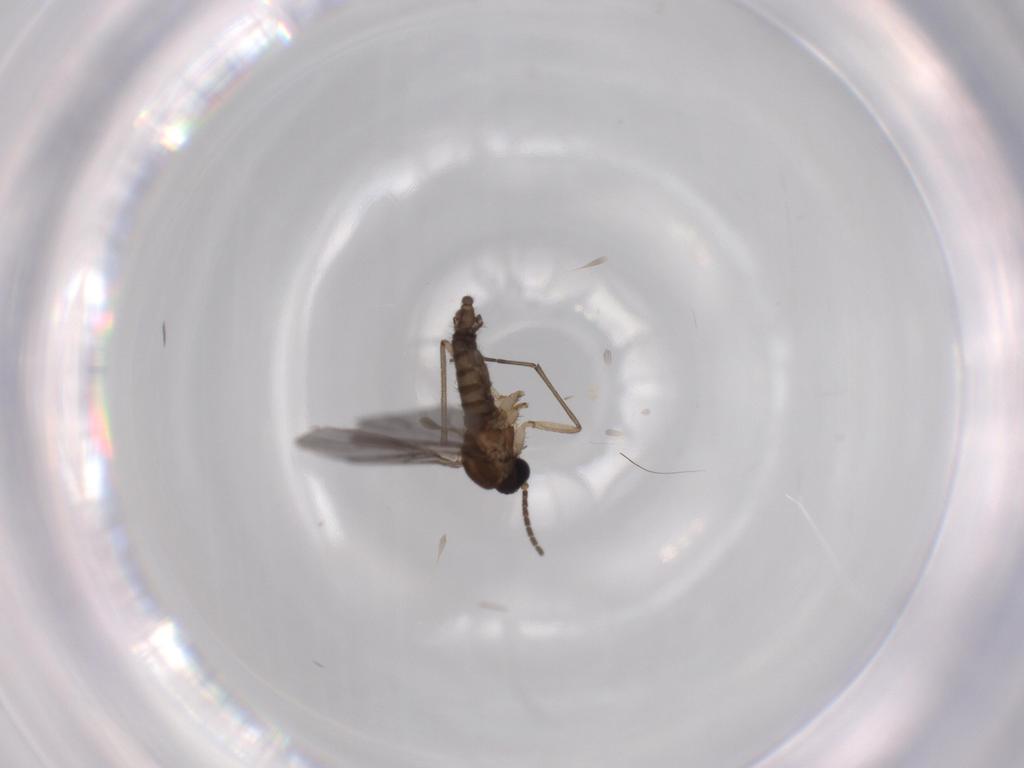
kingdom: Animalia
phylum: Arthropoda
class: Insecta
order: Diptera
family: Sciaridae
